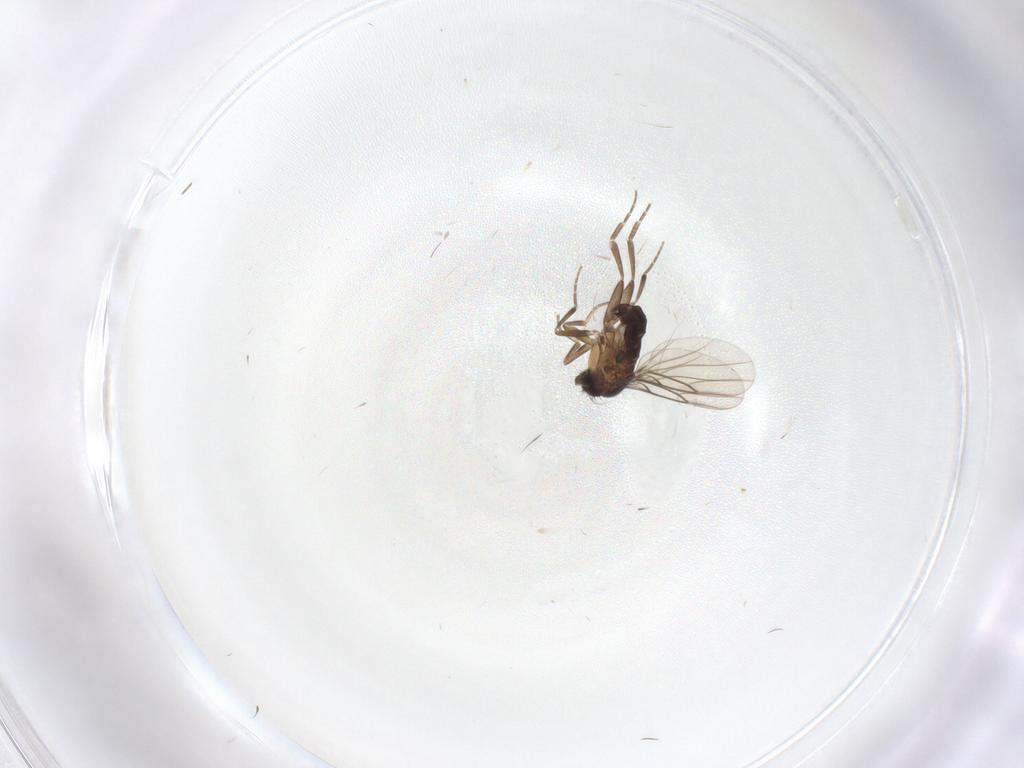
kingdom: Animalia
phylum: Arthropoda
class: Insecta
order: Diptera
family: Phoridae
